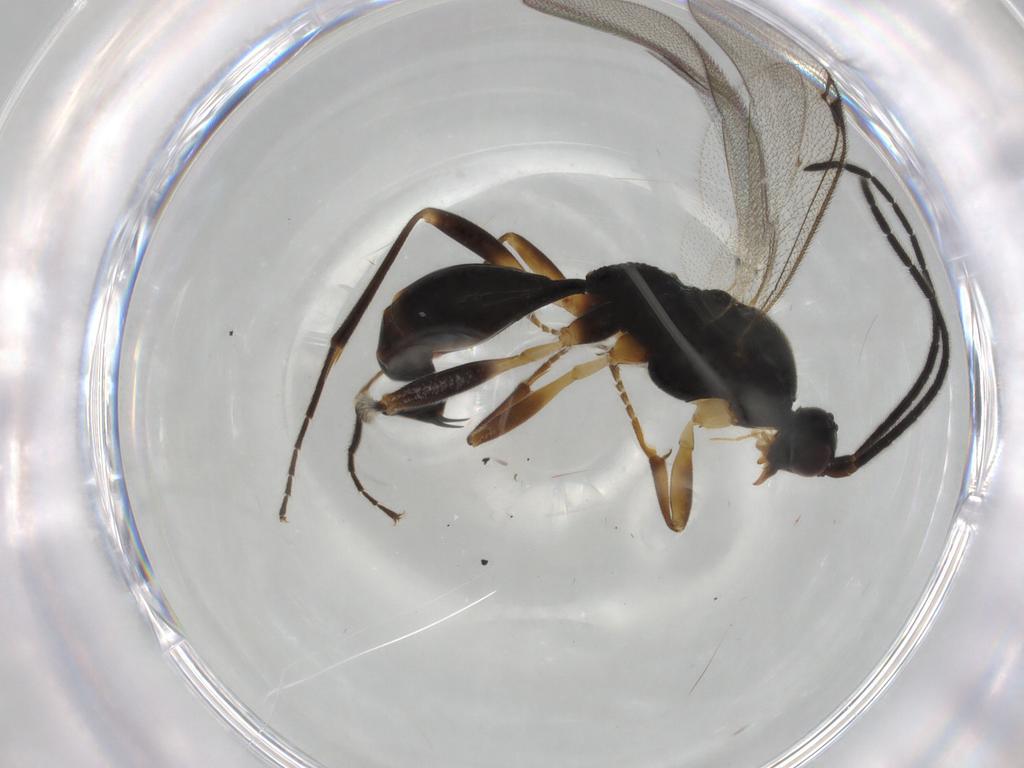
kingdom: Animalia
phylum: Arthropoda
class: Insecta
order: Hymenoptera
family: Proctotrupidae
